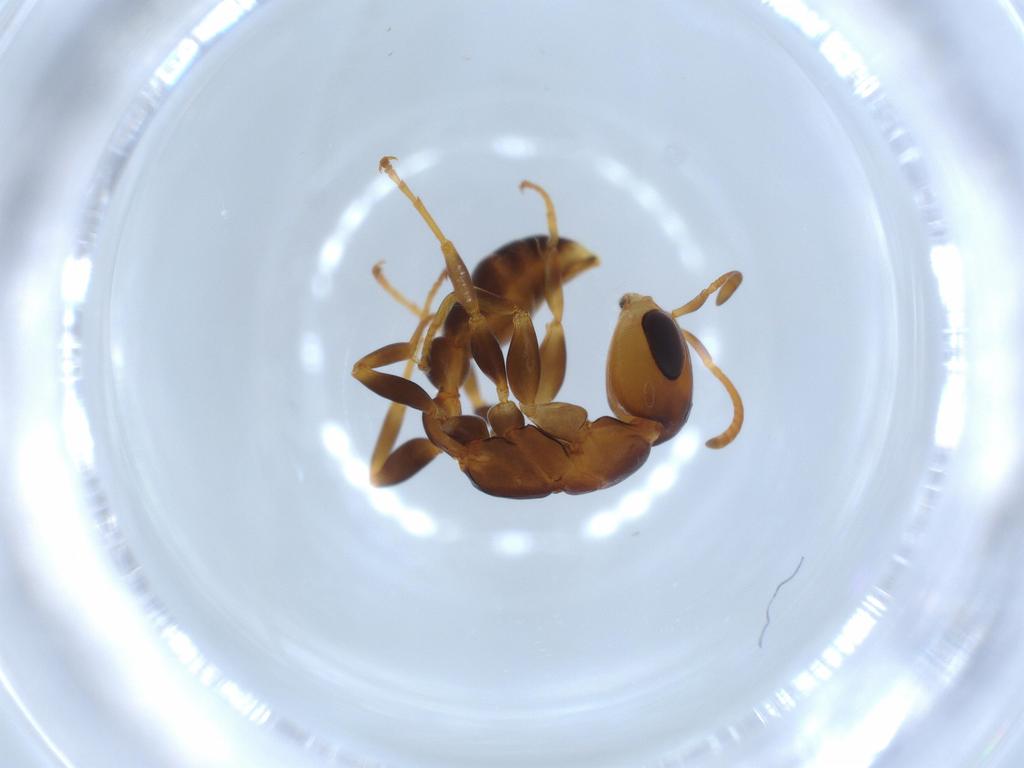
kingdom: Animalia
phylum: Arthropoda
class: Insecta
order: Hymenoptera
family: Formicidae
